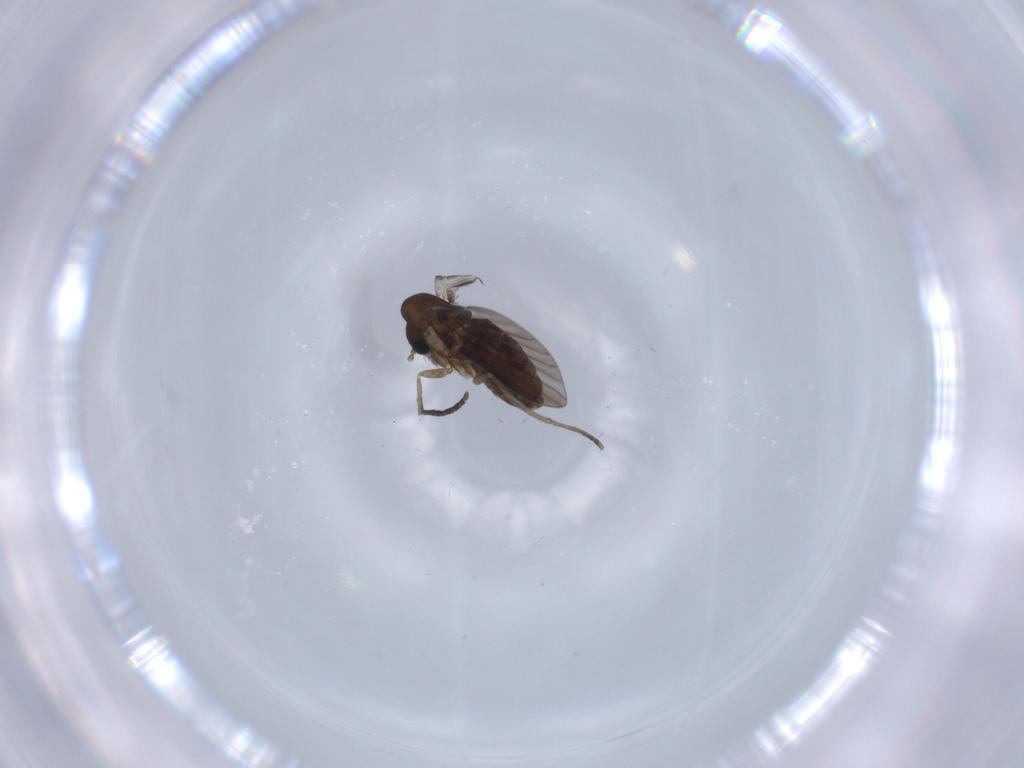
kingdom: Animalia
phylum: Arthropoda
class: Insecta
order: Diptera
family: Psychodidae
